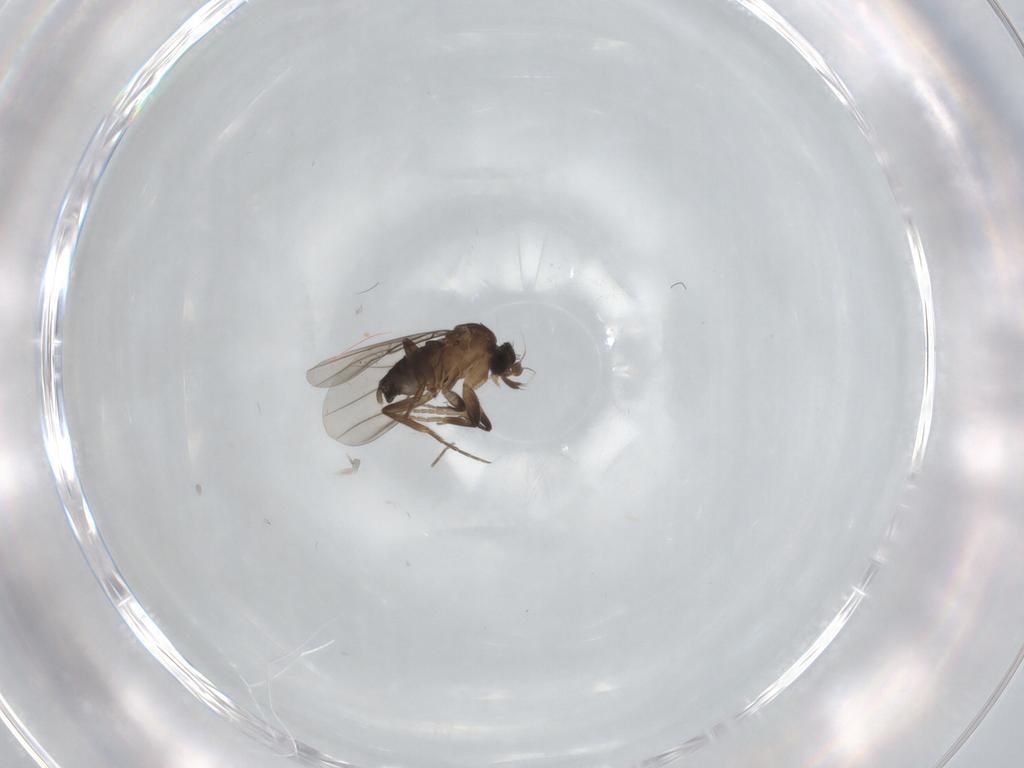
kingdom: Animalia
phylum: Arthropoda
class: Insecta
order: Diptera
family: Phoridae
